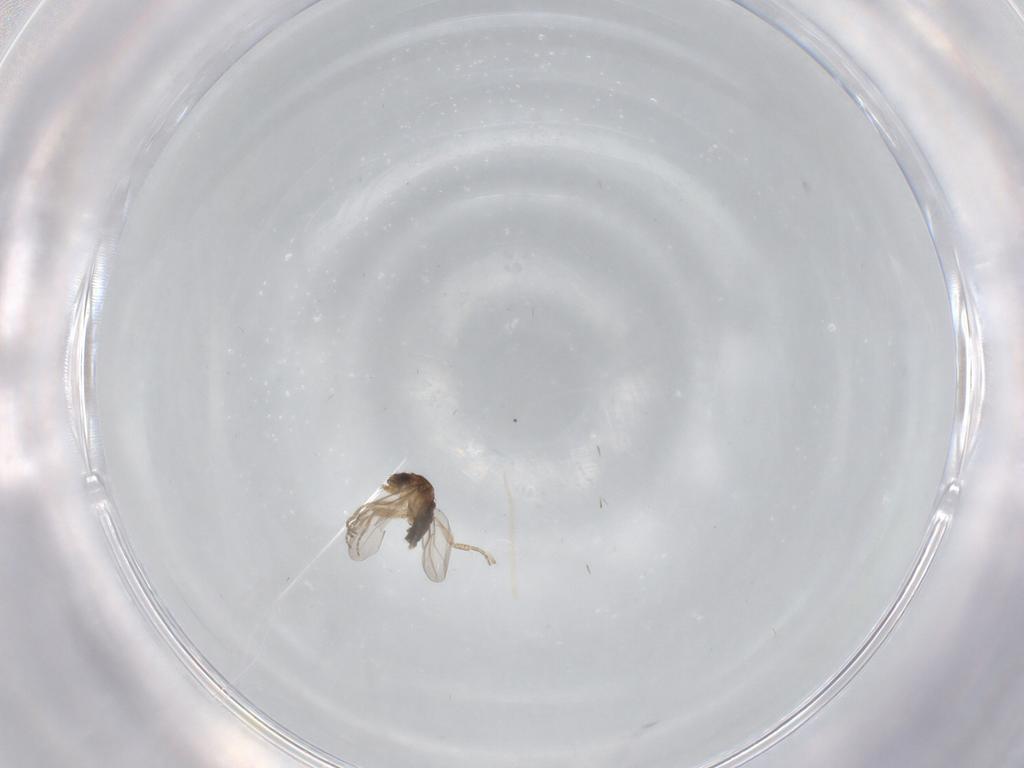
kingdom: Animalia
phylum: Arthropoda
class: Insecta
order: Diptera
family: Phoridae
